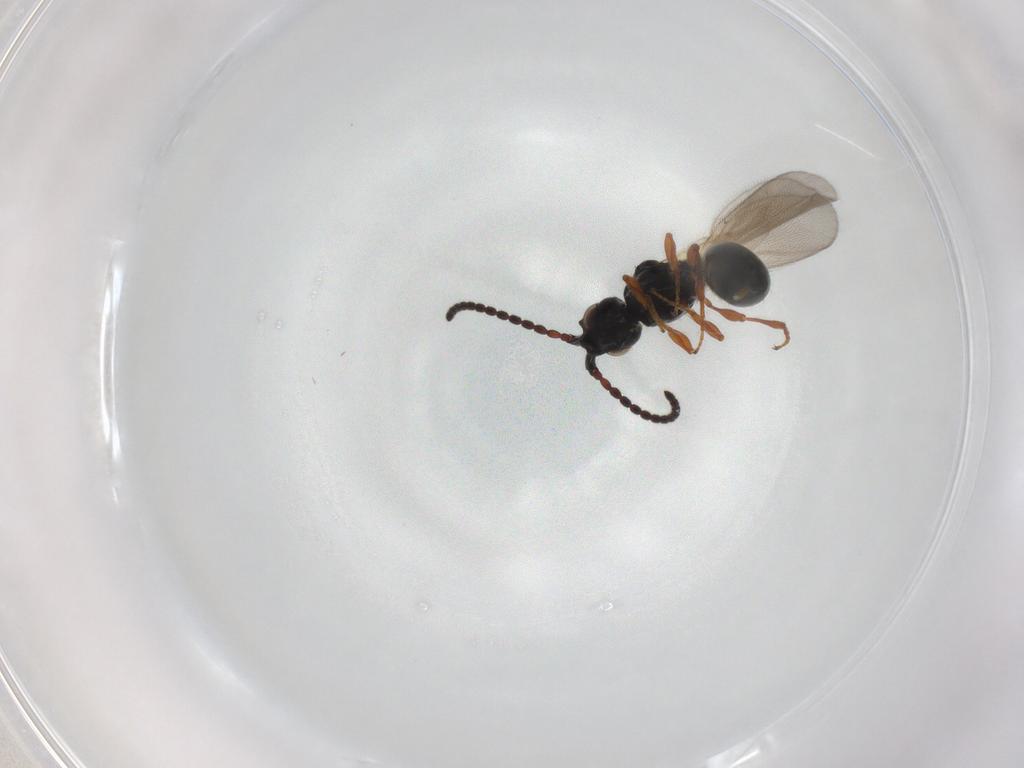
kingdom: Animalia
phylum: Arthropoda
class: Insecta
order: Hymenoptera
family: Diapriidae
